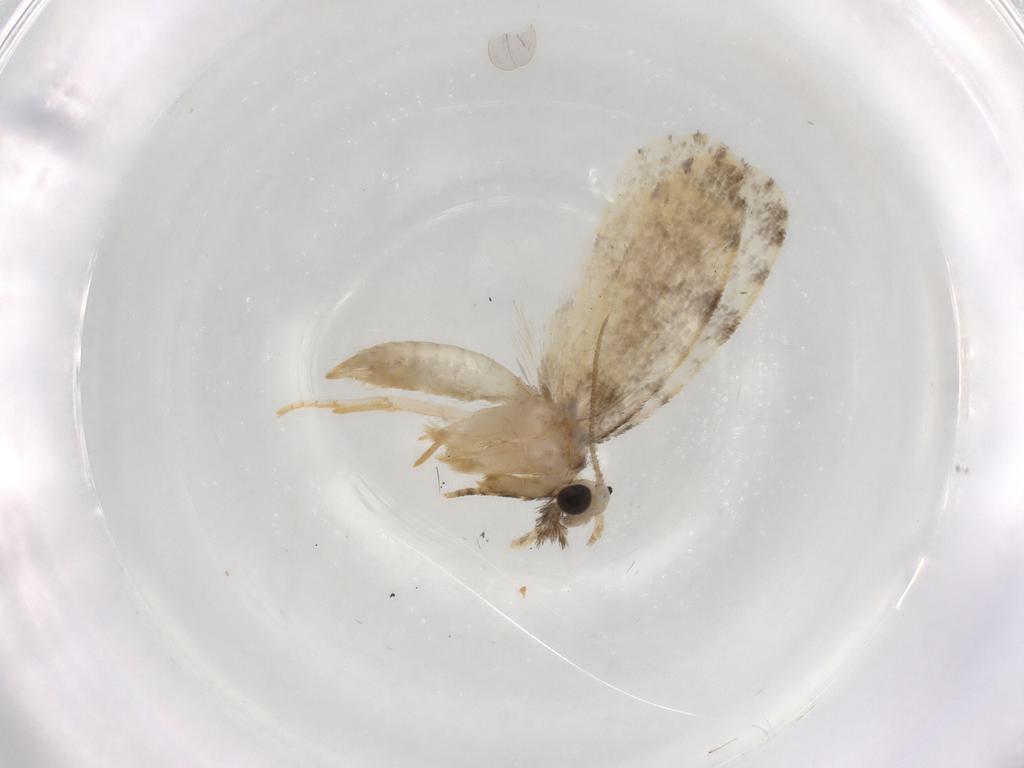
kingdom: Animalia
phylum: Arthropoda
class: Insecta
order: Lepidoptera
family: Psychidae
